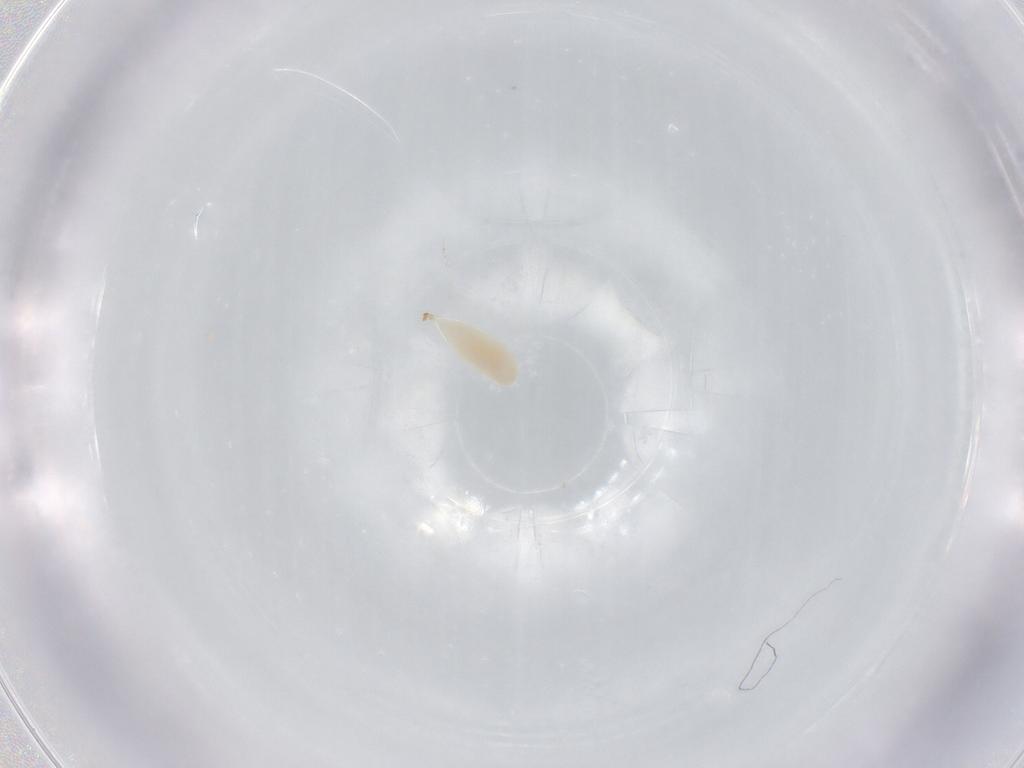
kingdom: Animalia
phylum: Arthropoda
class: Insecta
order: Hymenoptera
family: Ichneumonidae
